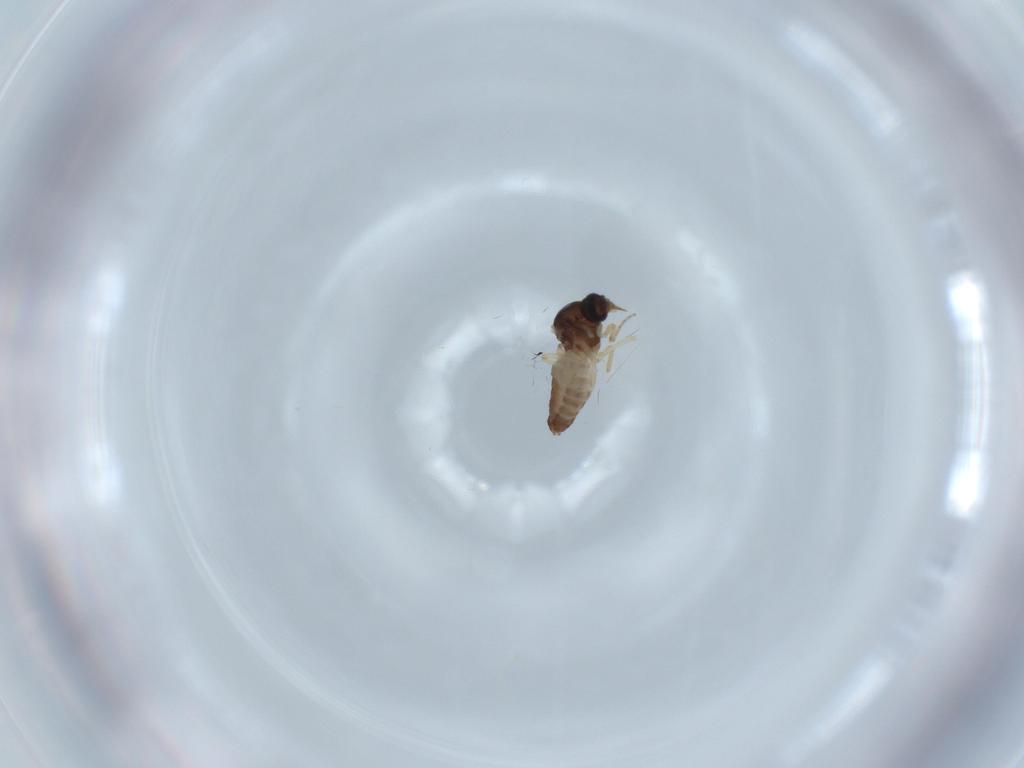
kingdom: Animalia
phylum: Arthropoda
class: Insecta
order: Diptera
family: Ceratopogonidae
